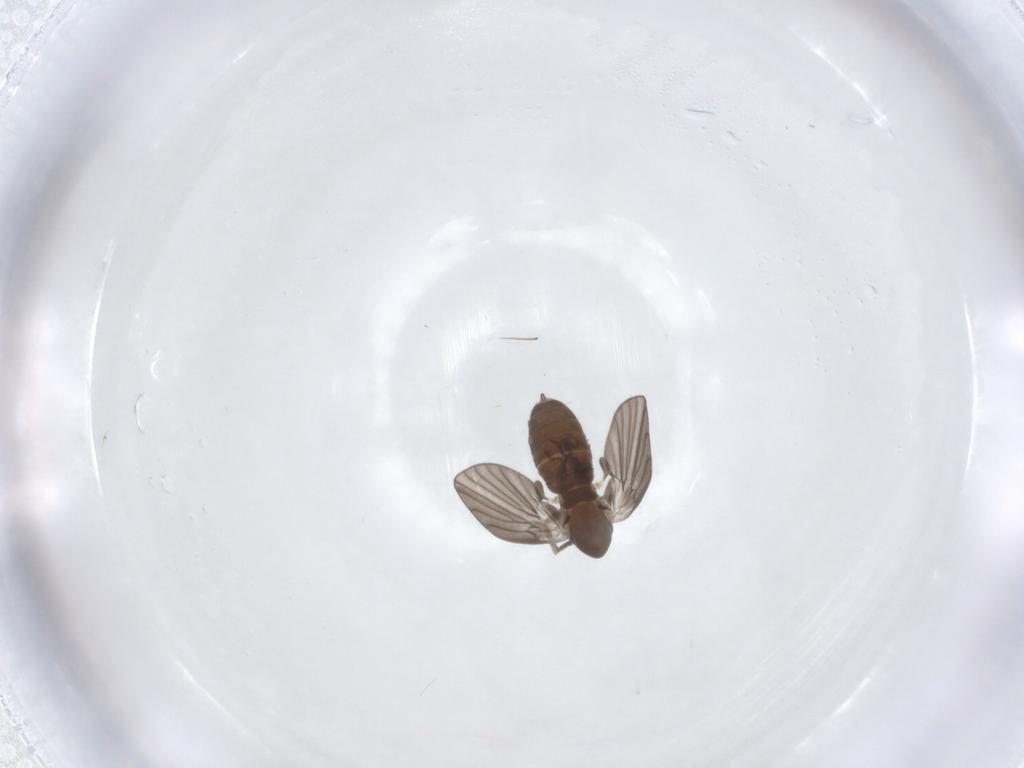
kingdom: Animalia
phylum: Arthropoda
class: Insecta
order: Diptera
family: Psychodidae
